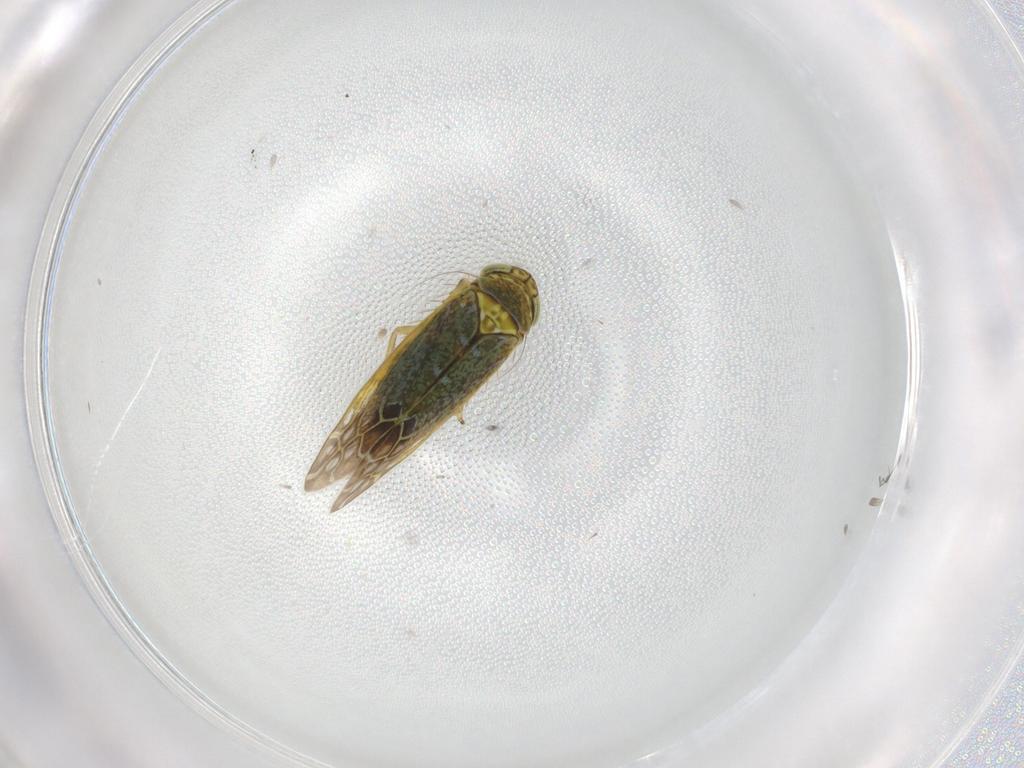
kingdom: Animalia
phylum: Arthropoda
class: Insecta
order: Hemiptera
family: Cicadellidae
